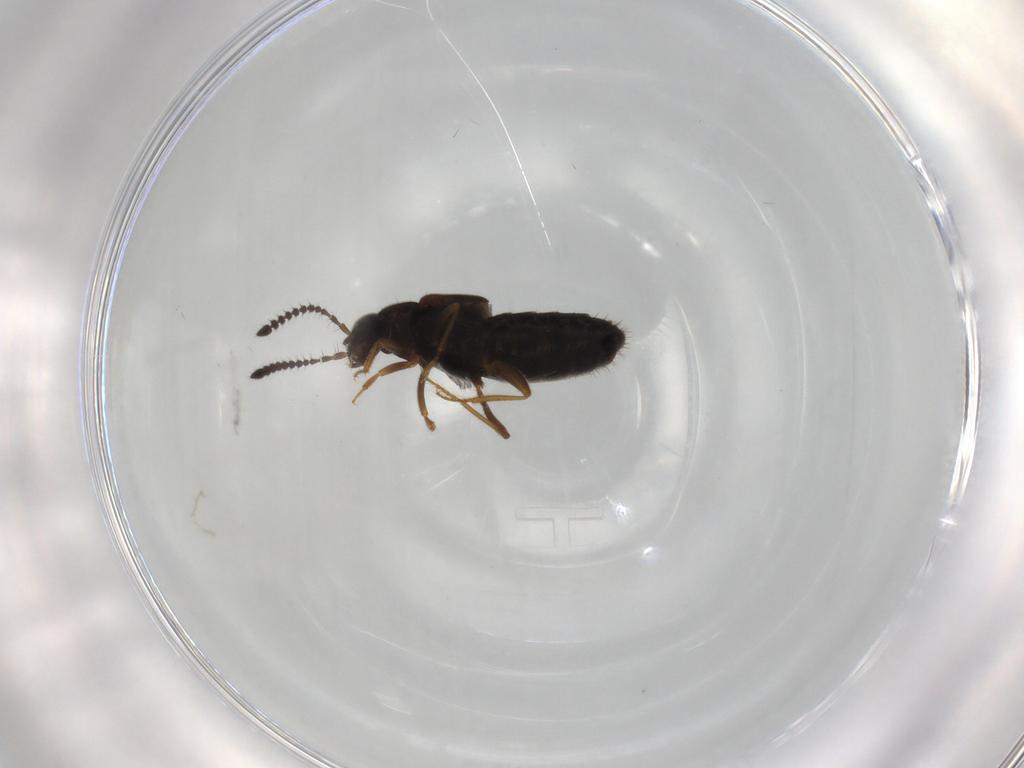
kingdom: Animalia
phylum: Arthropoda
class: Insecta
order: Coleoptera
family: Staphylinidae
